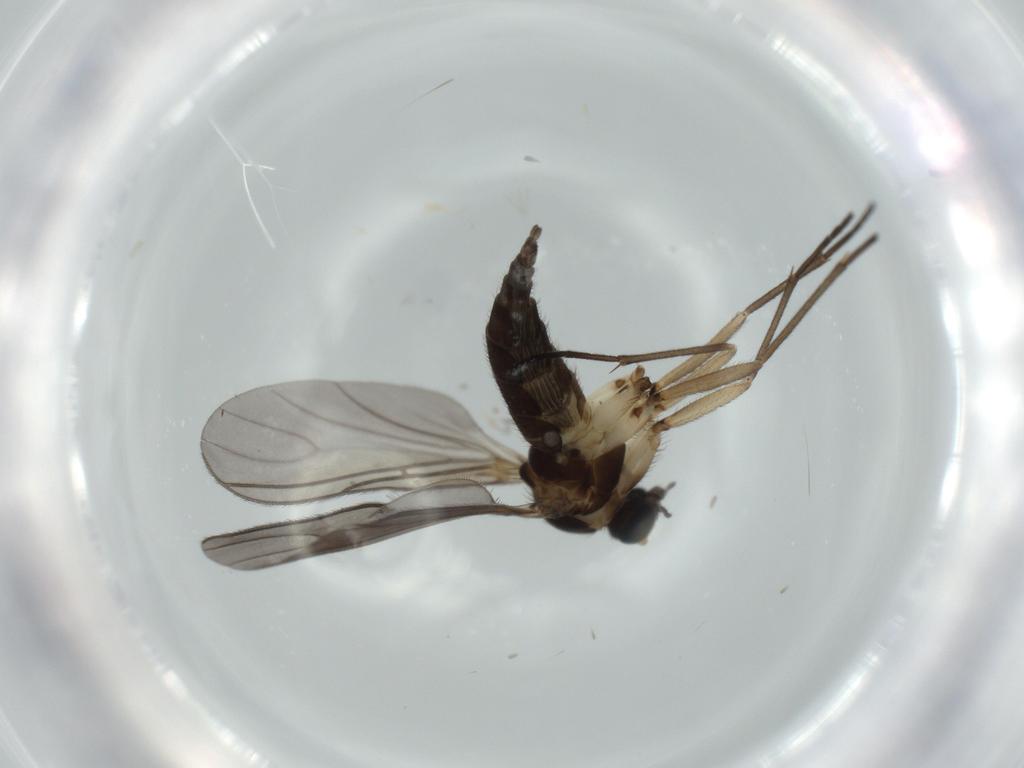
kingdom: Animalia
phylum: Arthropoda
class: Insecta
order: Diptera
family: Sciaridae
